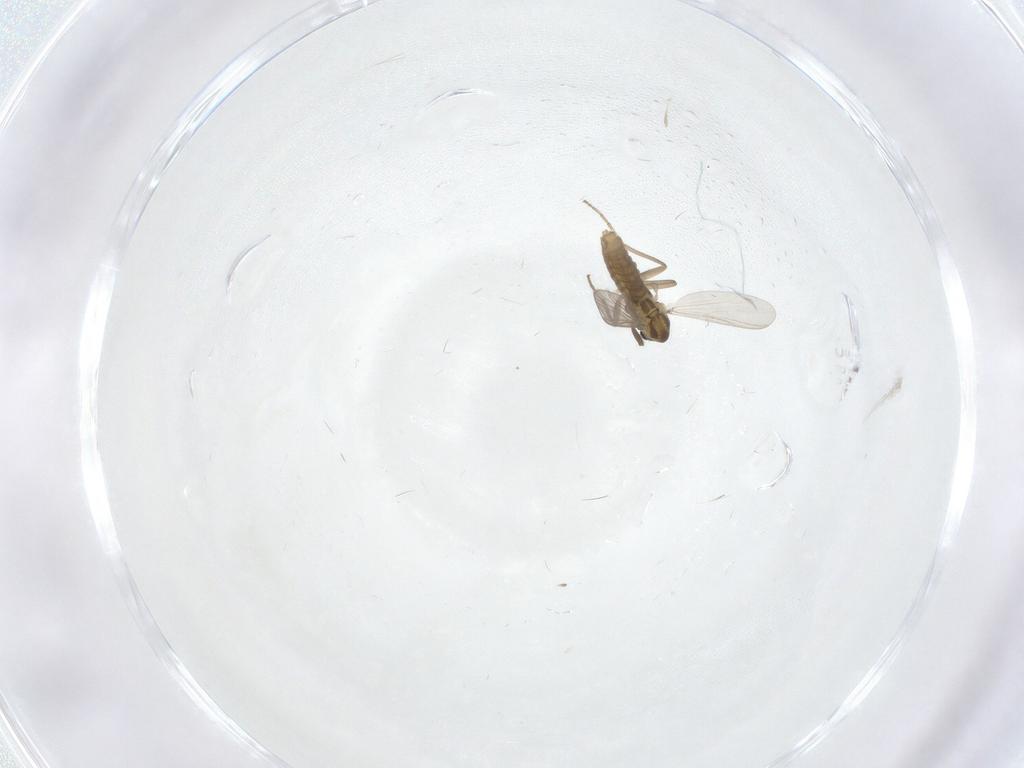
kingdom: Animalia
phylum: Arthropoda
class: Insecta
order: Diptera
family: Chironomidae
